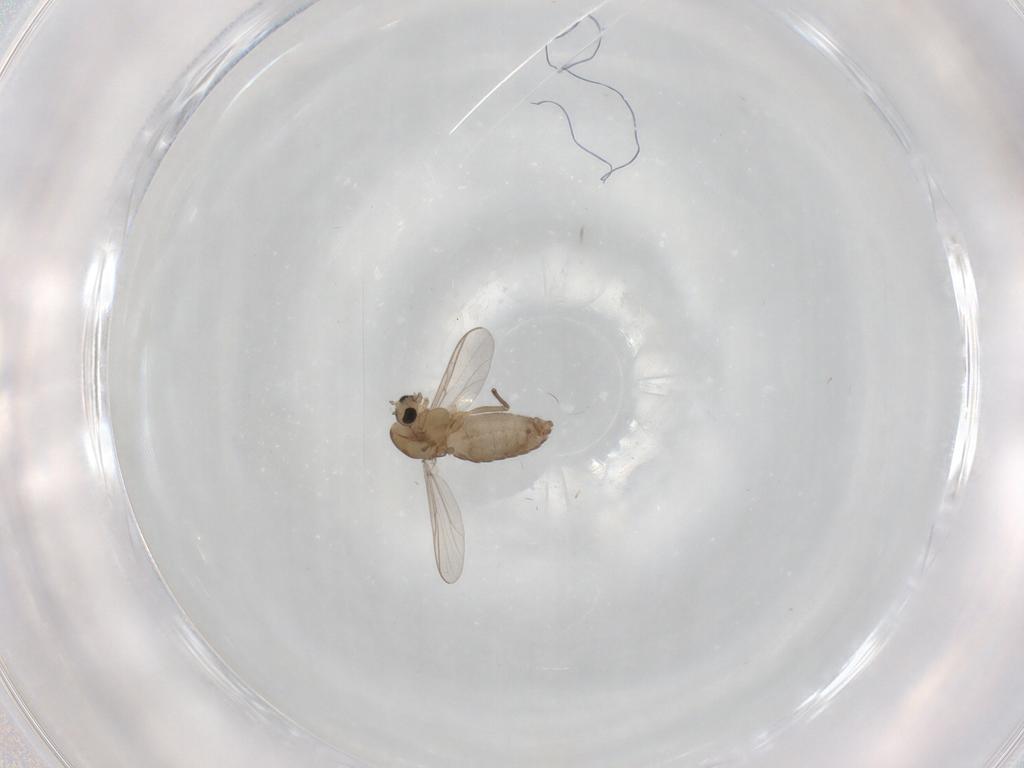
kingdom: Animalia
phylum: Arthropoda
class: Insecta
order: Diptera
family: Chironomidae
